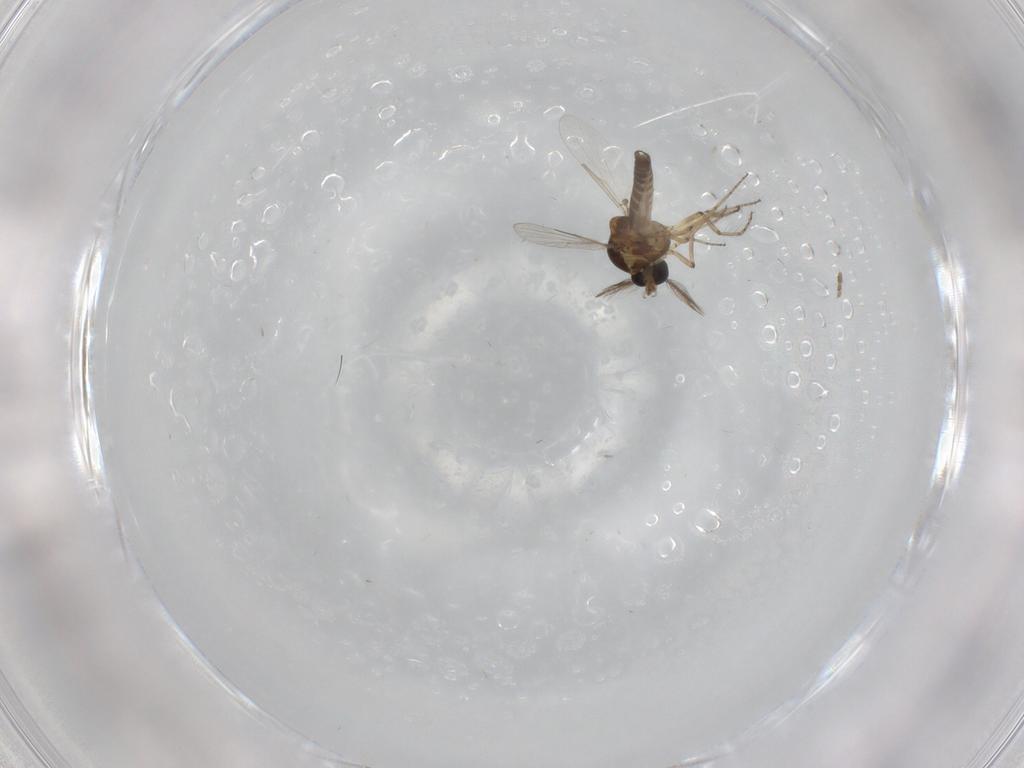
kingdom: Animalia
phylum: Arthropoda
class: Insecta
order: Diptera
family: Ceratopogonidae
